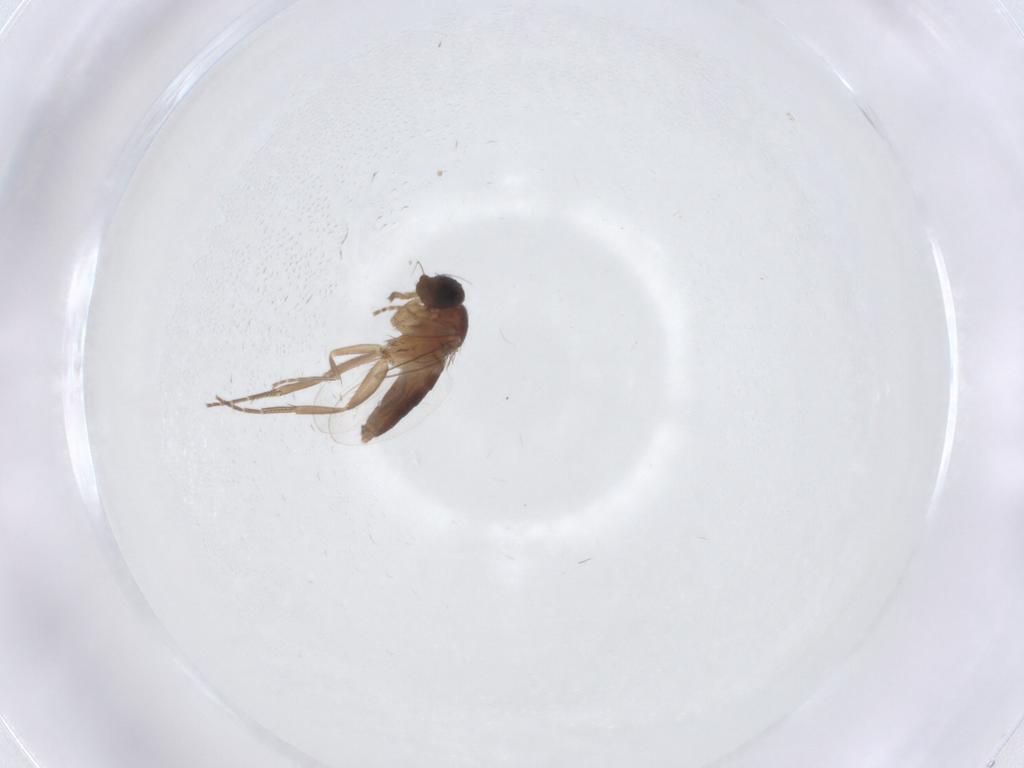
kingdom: Animalia
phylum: Arthropoda
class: Insecta
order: Diptera
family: Phoridae
